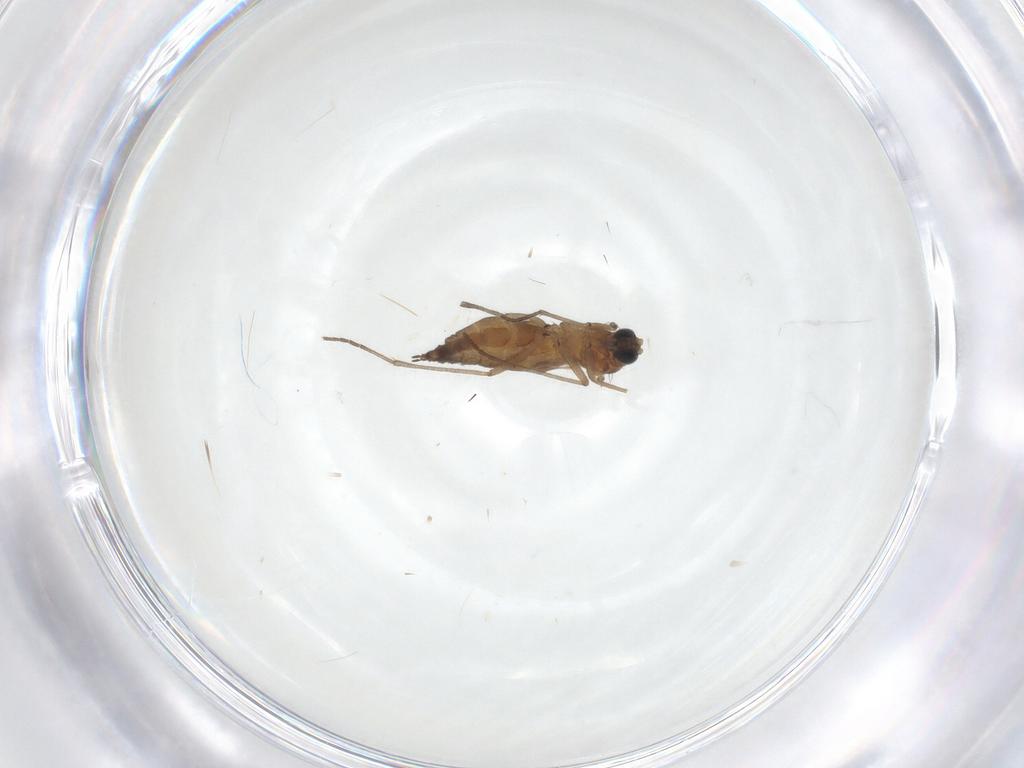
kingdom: Animalia
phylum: Arthropoda
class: Insecta
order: Diptera
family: Sciaridae
